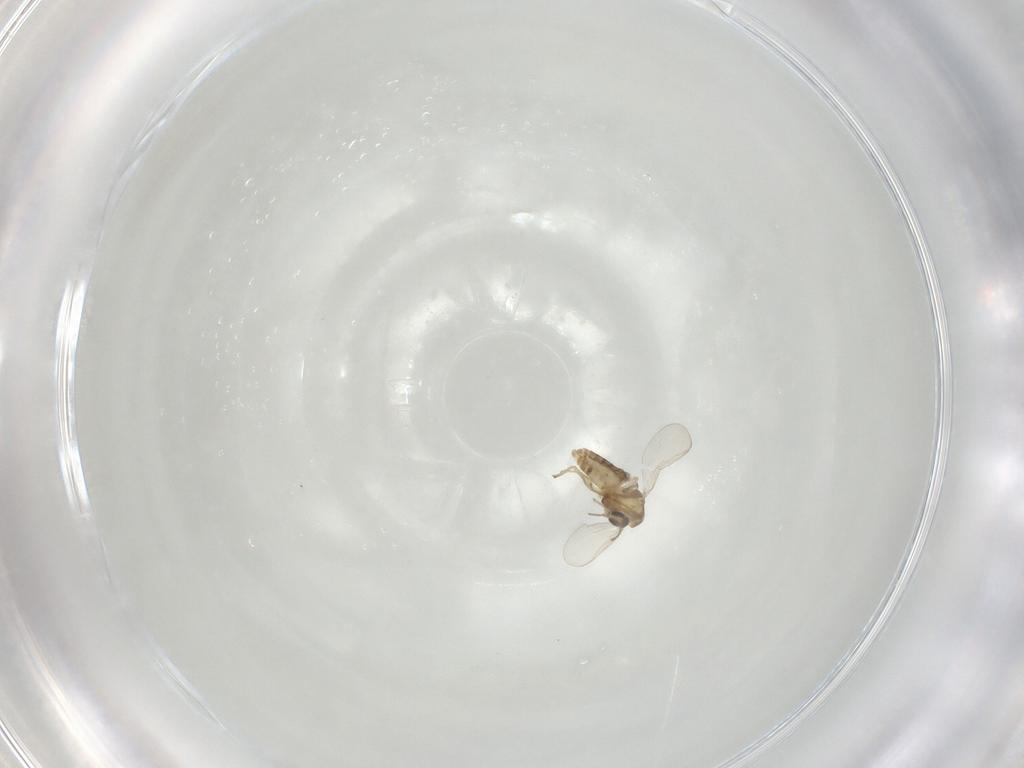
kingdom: Animalia
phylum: Arthropoda
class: Insecta
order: Diptera
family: Chironomidae
